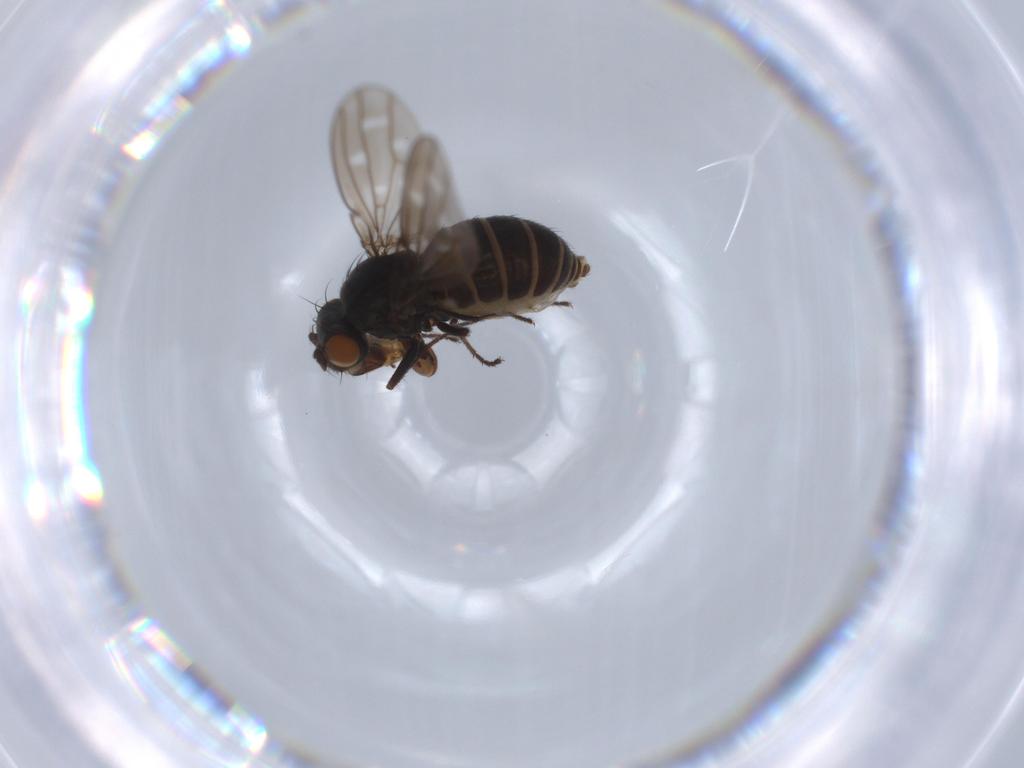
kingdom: Animalia
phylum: Arthropoda
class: Insecta
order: Diptera
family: Ephydridae
